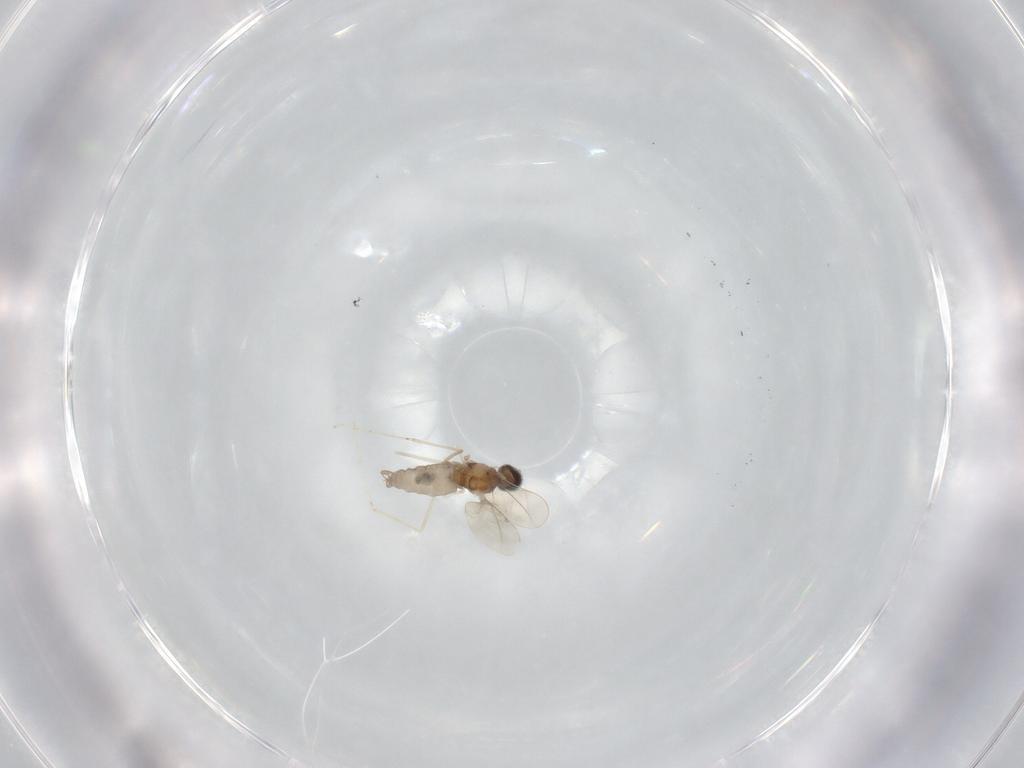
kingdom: Animalia
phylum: Arthropoda
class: Insecta
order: Diptera
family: Cecidomyiidae
